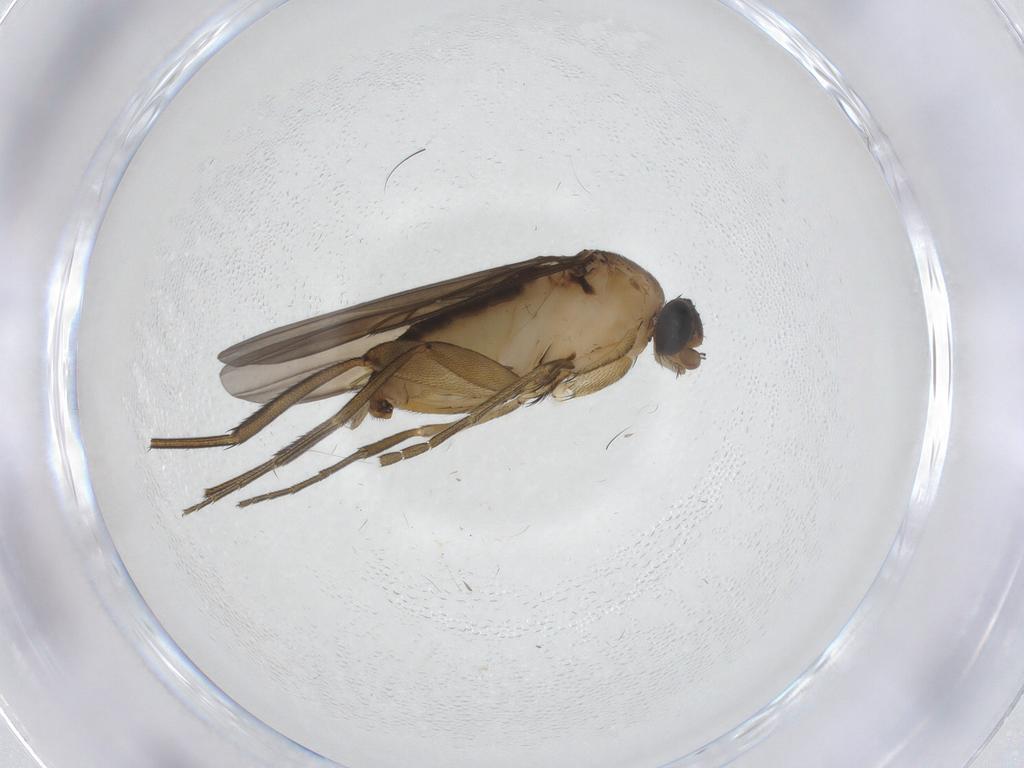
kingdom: Animalia
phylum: Arthropoda
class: Insecta
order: Diptera
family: Phoridae
